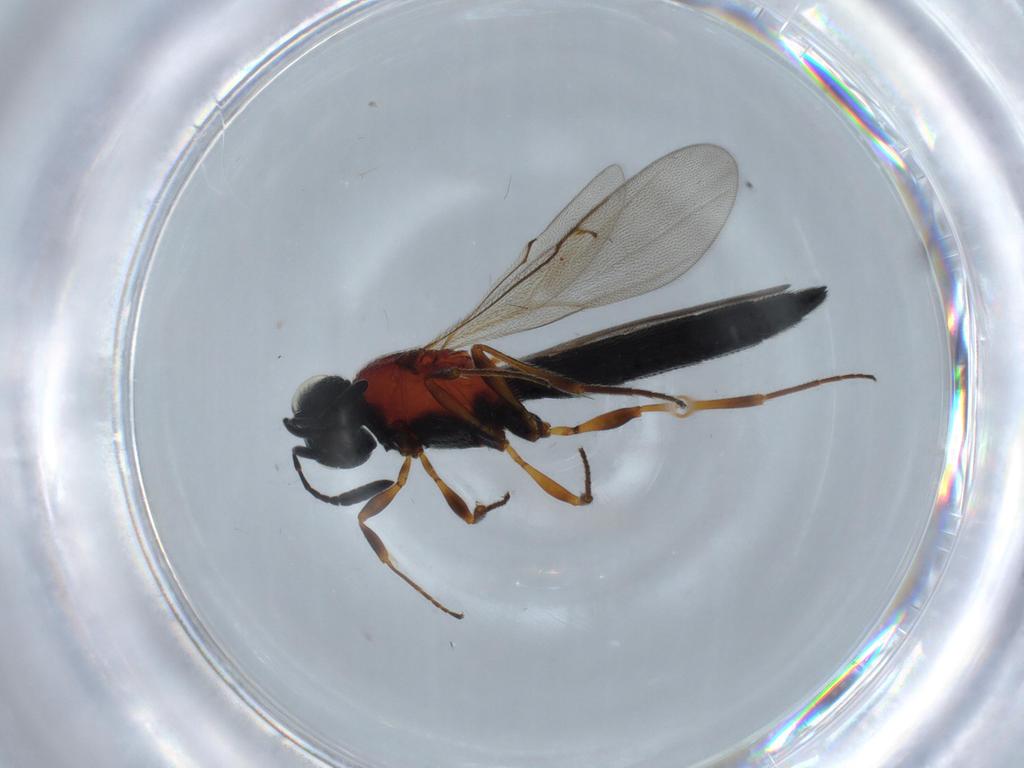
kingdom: Animalia
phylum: Arthropoda
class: Insecta
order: Hymenoptera
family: Scelionidae
